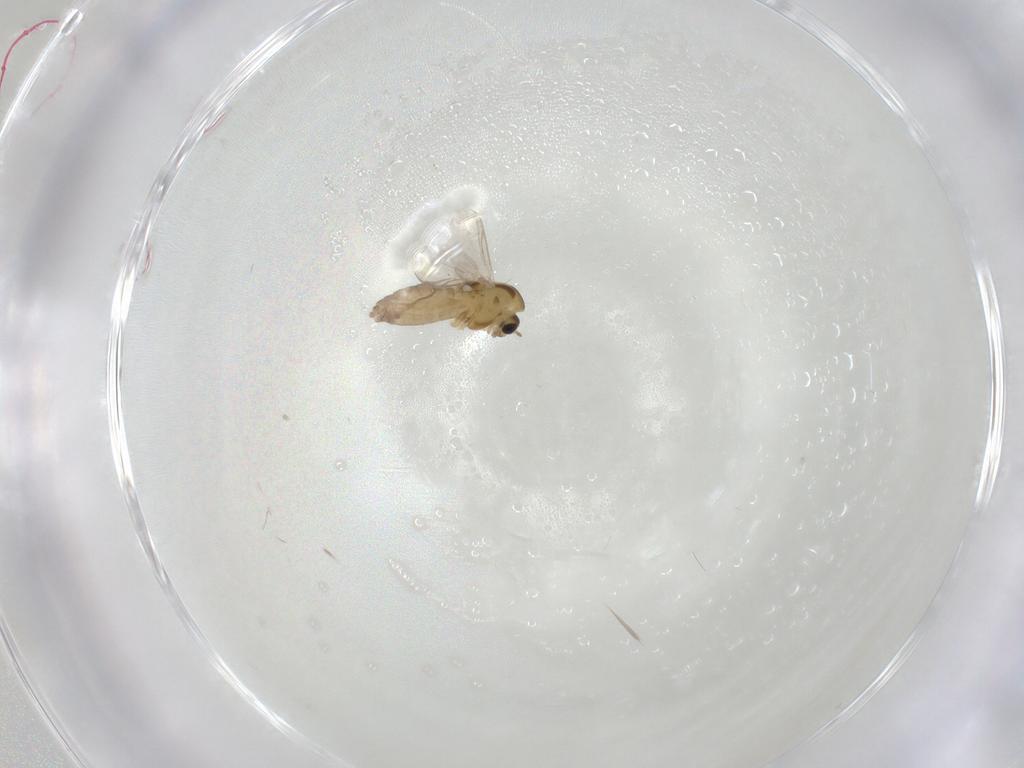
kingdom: Animalia
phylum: Arthropoda
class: Insecta
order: Diptera
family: Chironomidae
